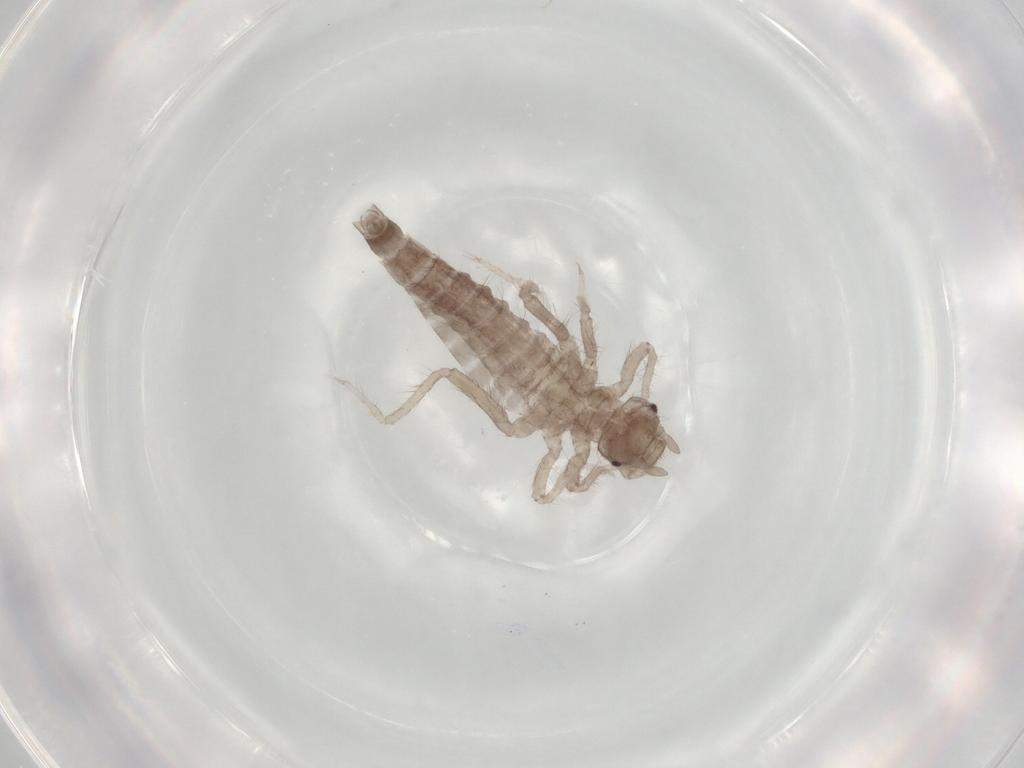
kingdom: Animalia
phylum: Arthropoda
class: Insecta
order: Ephemeroptera
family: Caenidae
